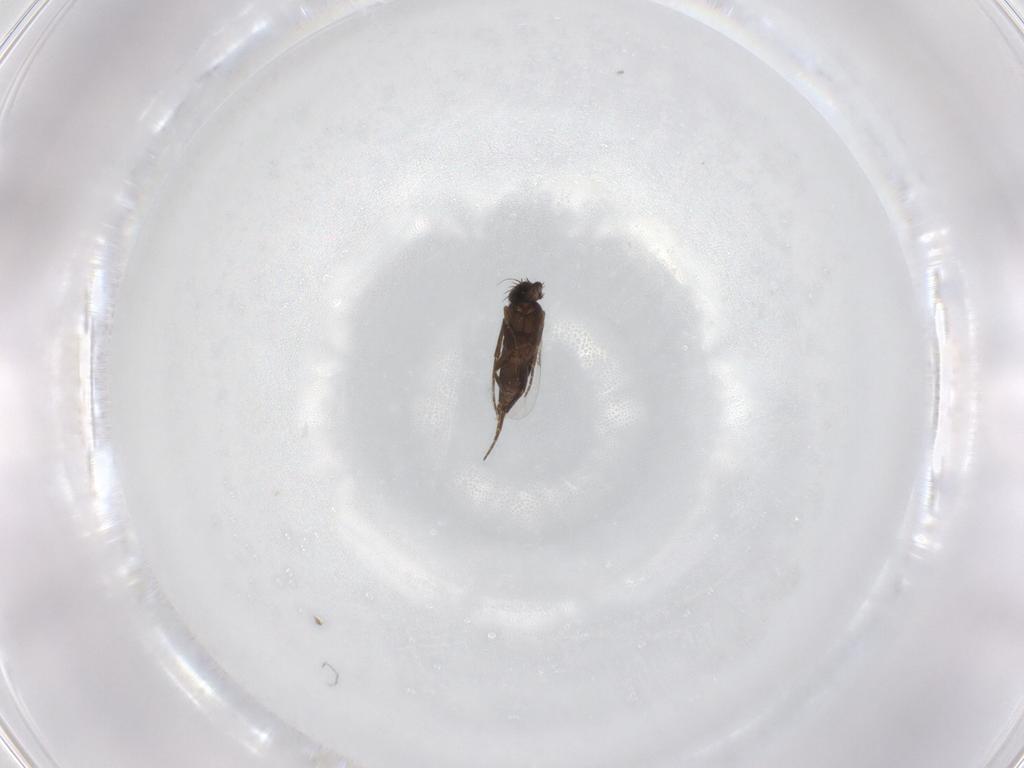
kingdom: Animalia
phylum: Arthropoda
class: Insecta
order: Diptera
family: Phoridae
